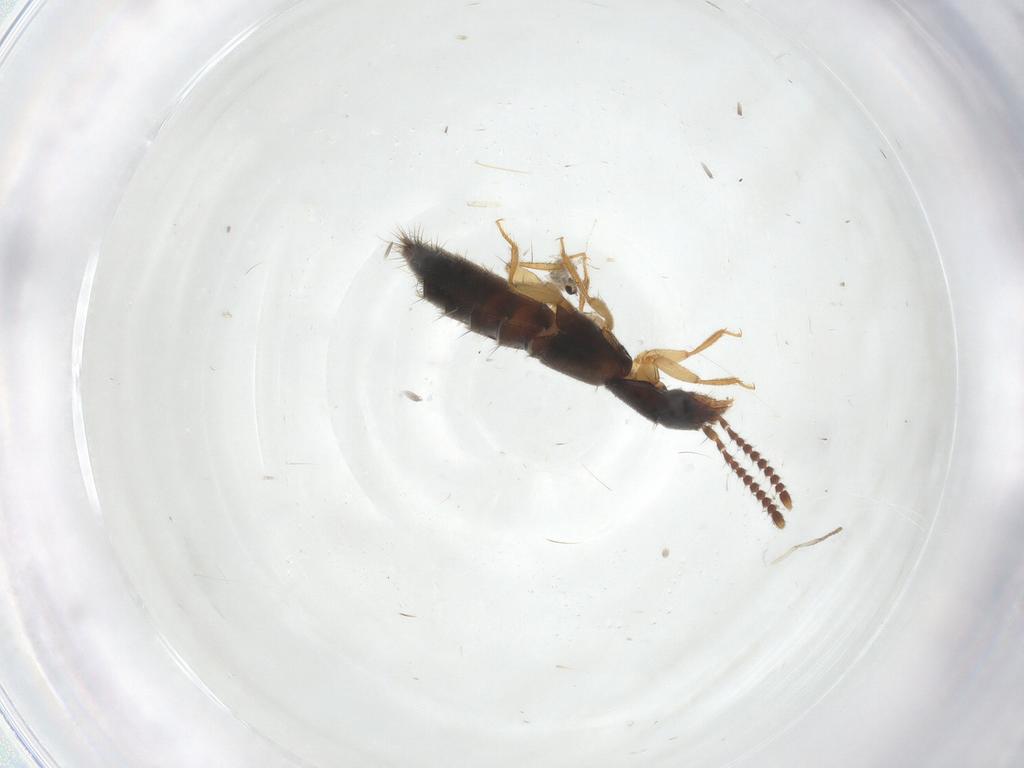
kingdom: Animalia
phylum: Arthropoda
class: Insecta
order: Coleoptera
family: Staphylinidae
